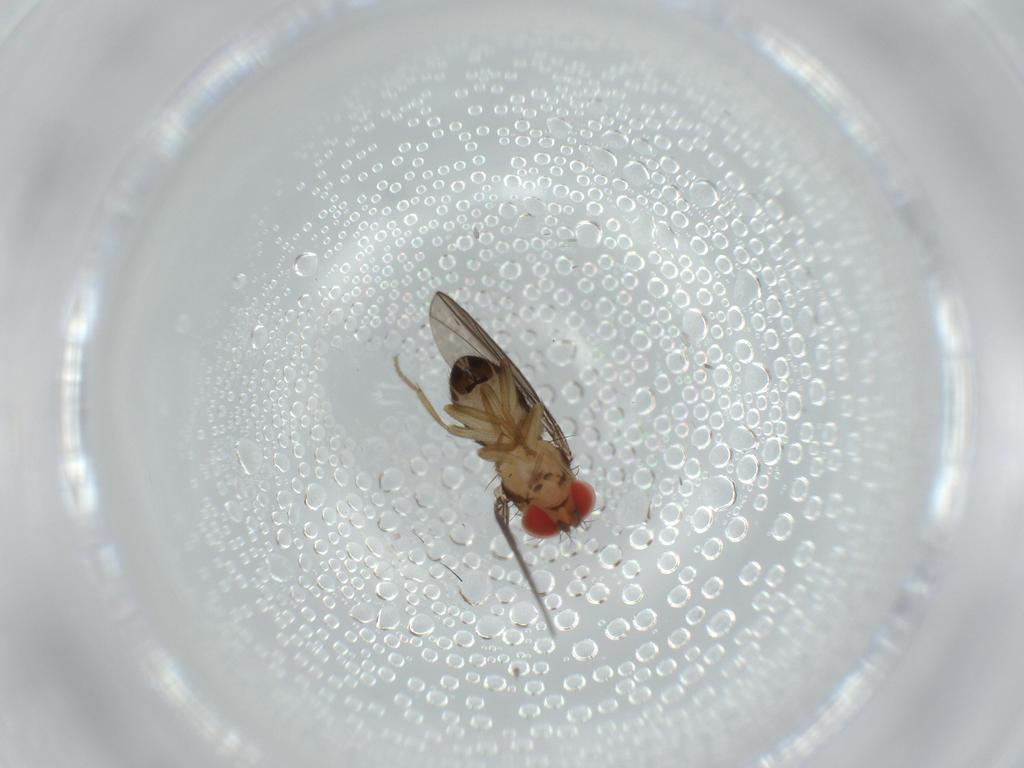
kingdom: Animalia
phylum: Arthropoda
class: Insecta
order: Diptera
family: Drosophilidae
